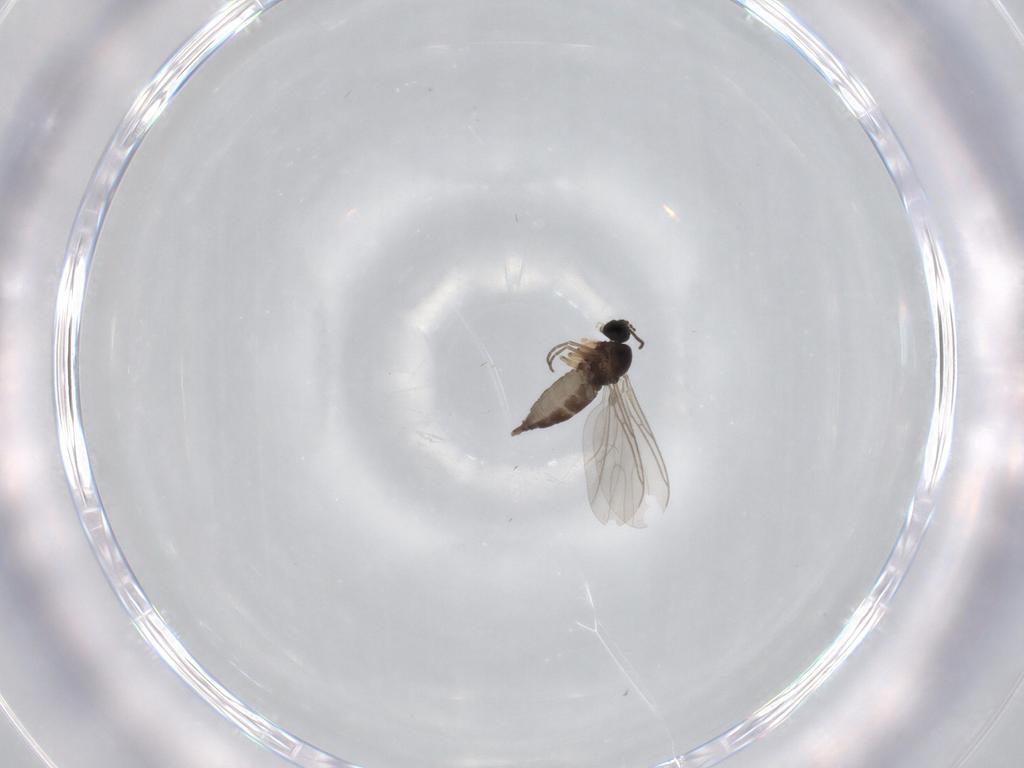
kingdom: Animalia
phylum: Arthropoda
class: Insecta
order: Diptera
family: Sciaridae
